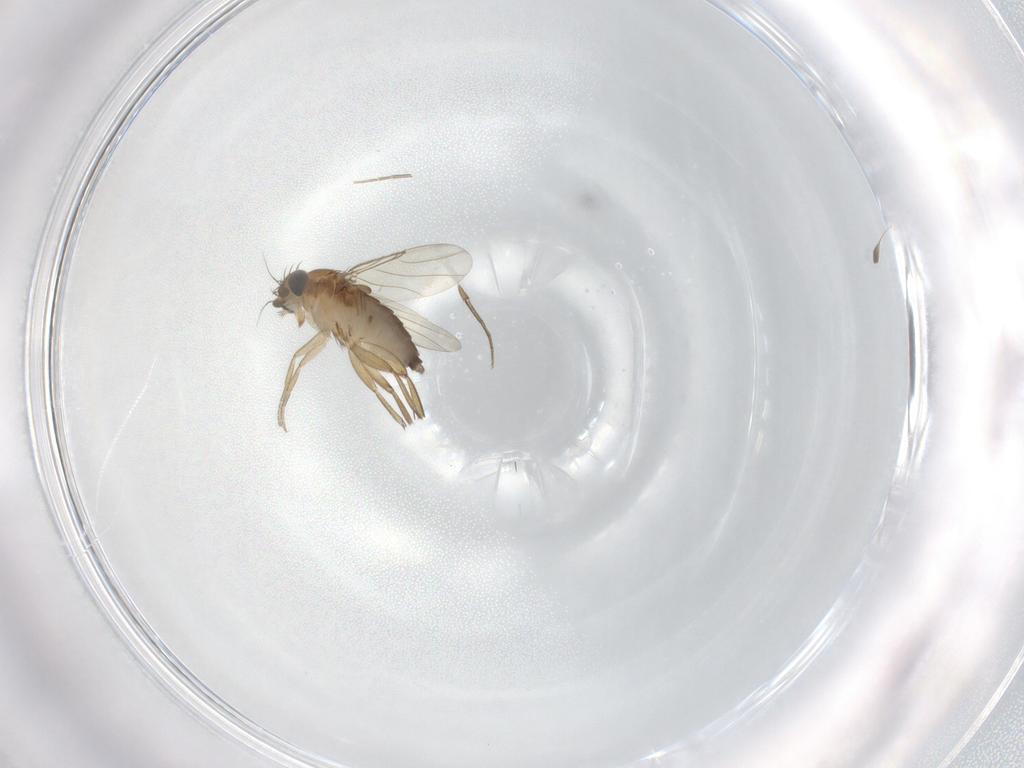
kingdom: Animalia
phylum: Arthropoda
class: Insecta
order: Diptera
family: Phoridae
